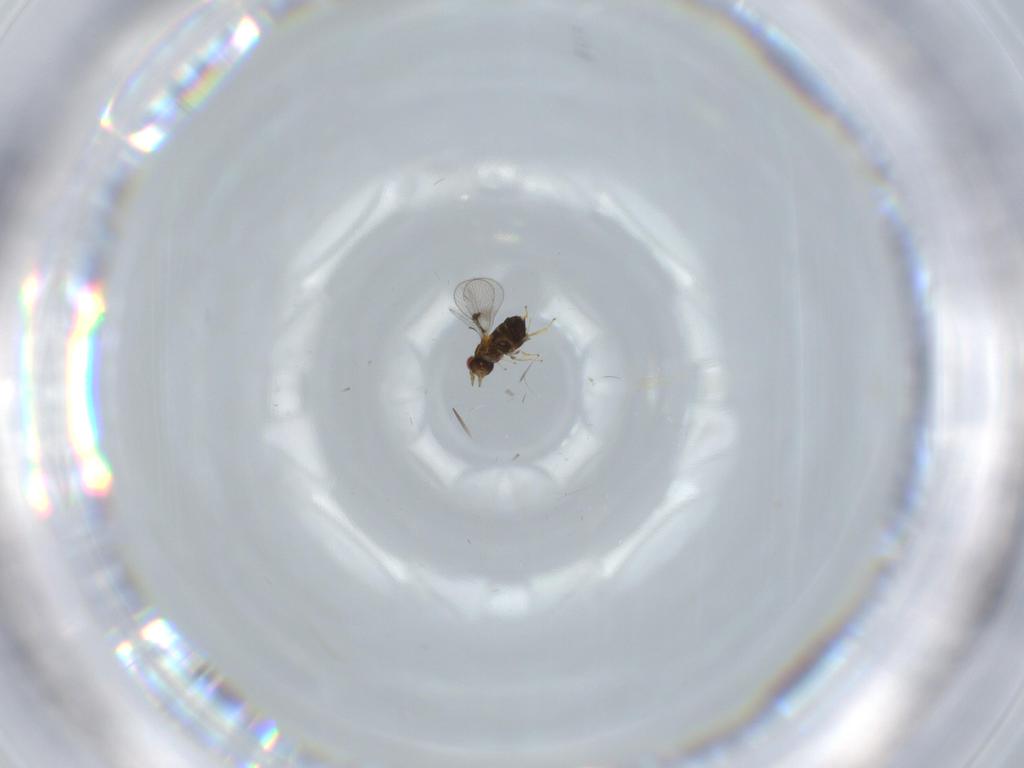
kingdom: Animalia
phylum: Arthropoda
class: Insecta
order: Hymenoptera
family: Trichogrammatidae
